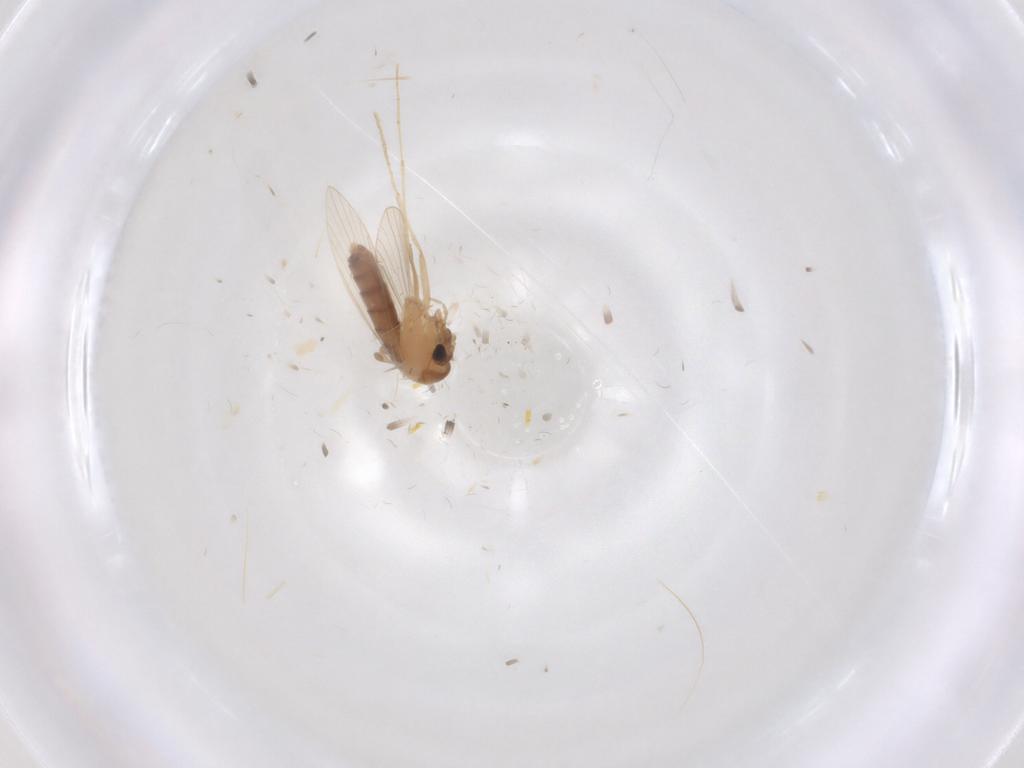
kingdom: Animalia
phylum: Arthropoda
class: Insecta
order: Diptera
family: Psychodidae
